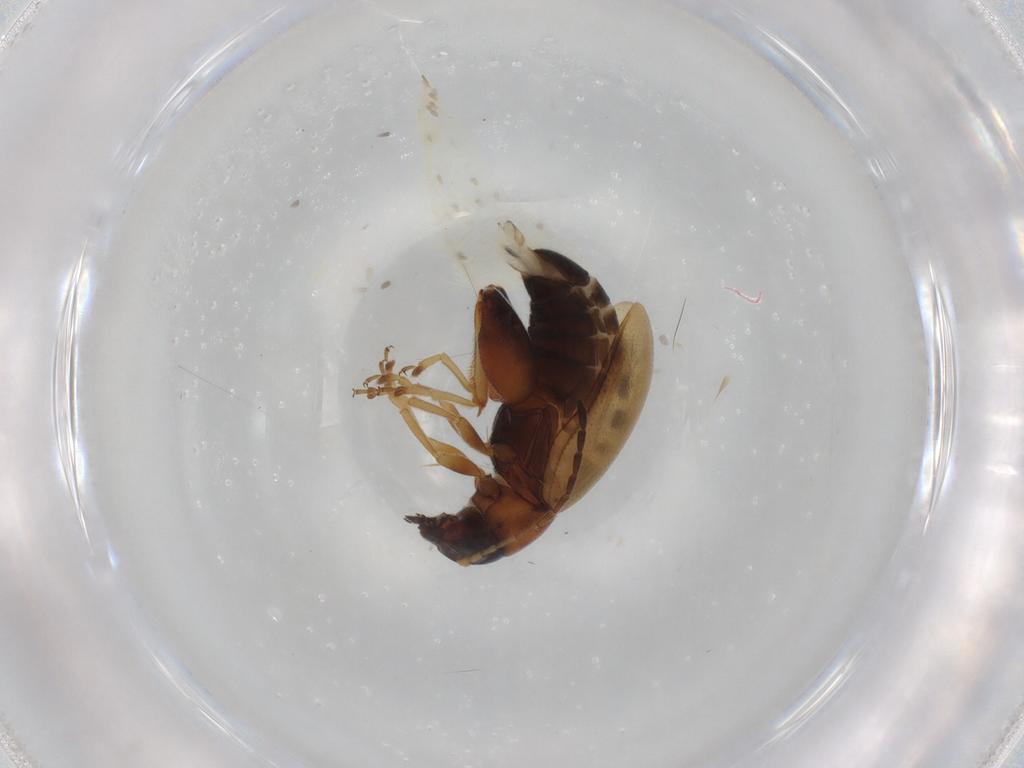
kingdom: Animalia
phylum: Arthropoda
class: Insecta
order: Coleoptera
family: Chrysomelidae
